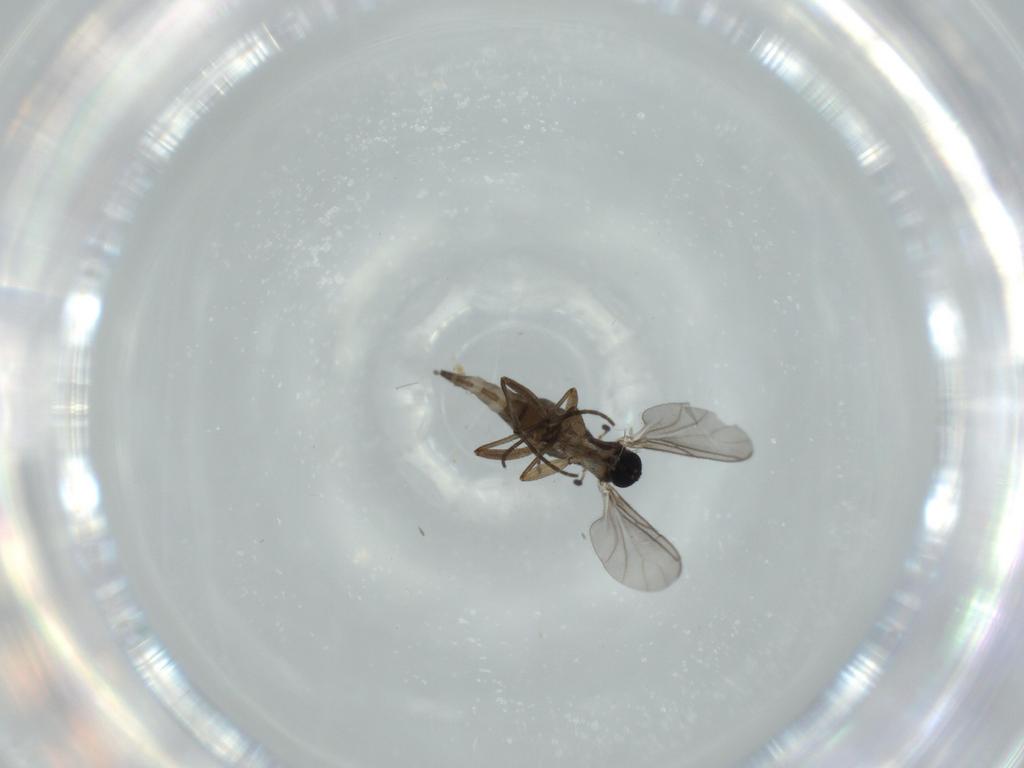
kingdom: Animalia
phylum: Arthropoda
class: Insecta
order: Diptera
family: Sciaridae
